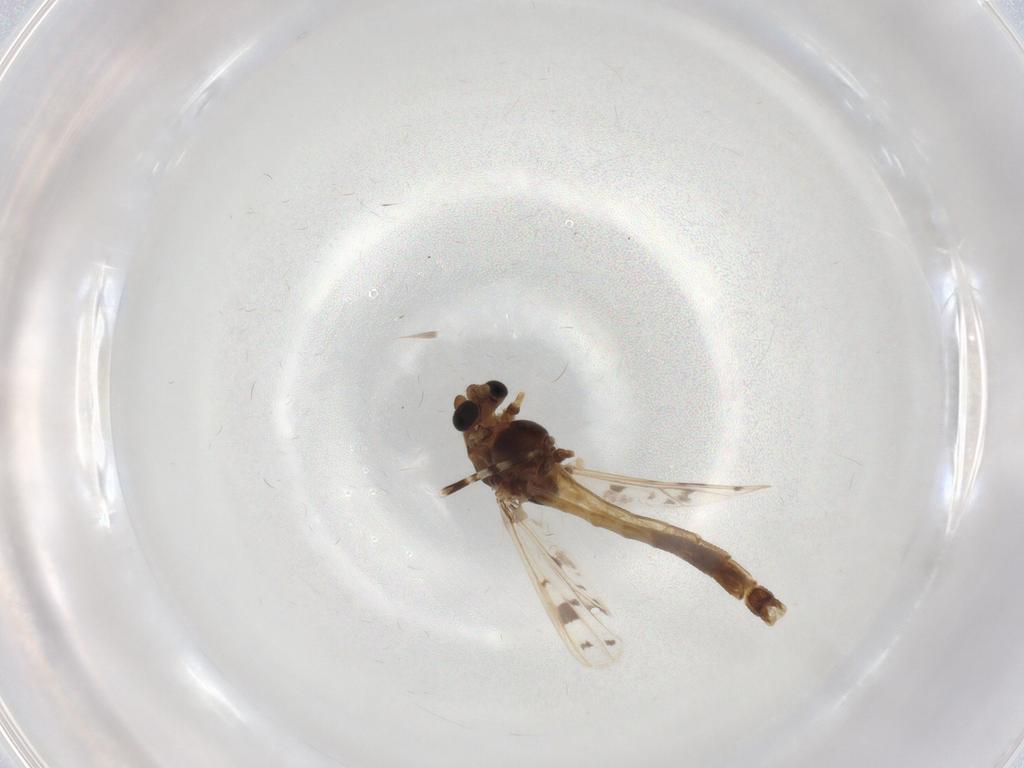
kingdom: Animalia
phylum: Arthropoda
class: Insecta
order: Diptera
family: Chironomidae
